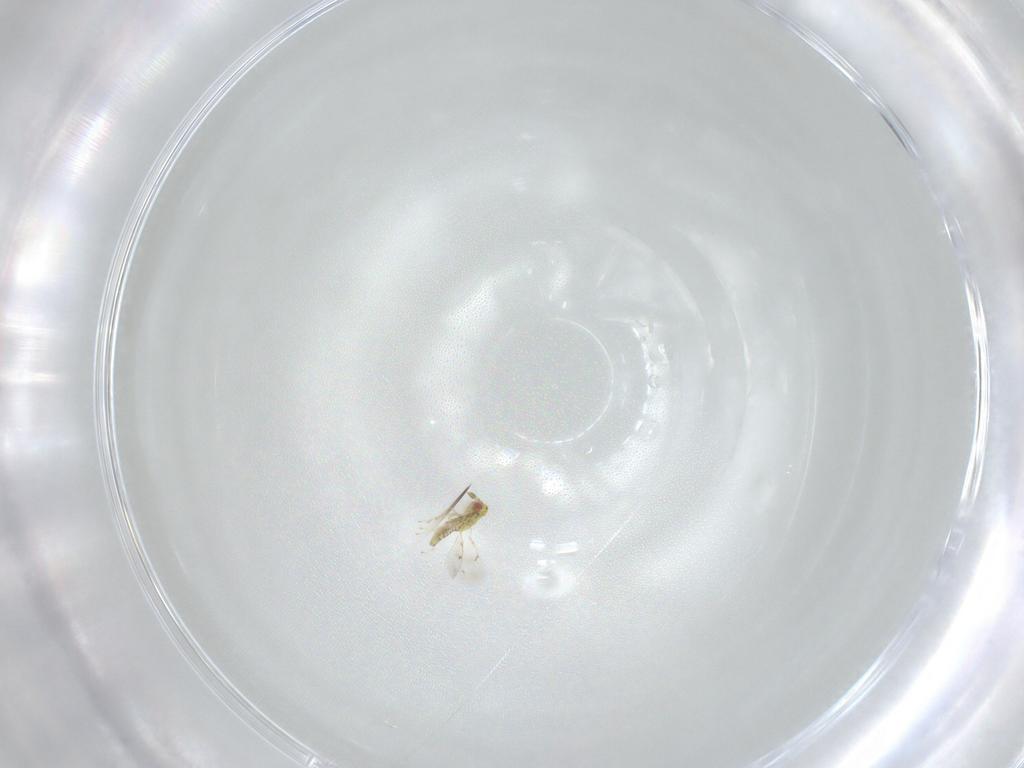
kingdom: Animalia
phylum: Arthropoda
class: Insecta
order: Hymenoptera
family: Eulophidae
